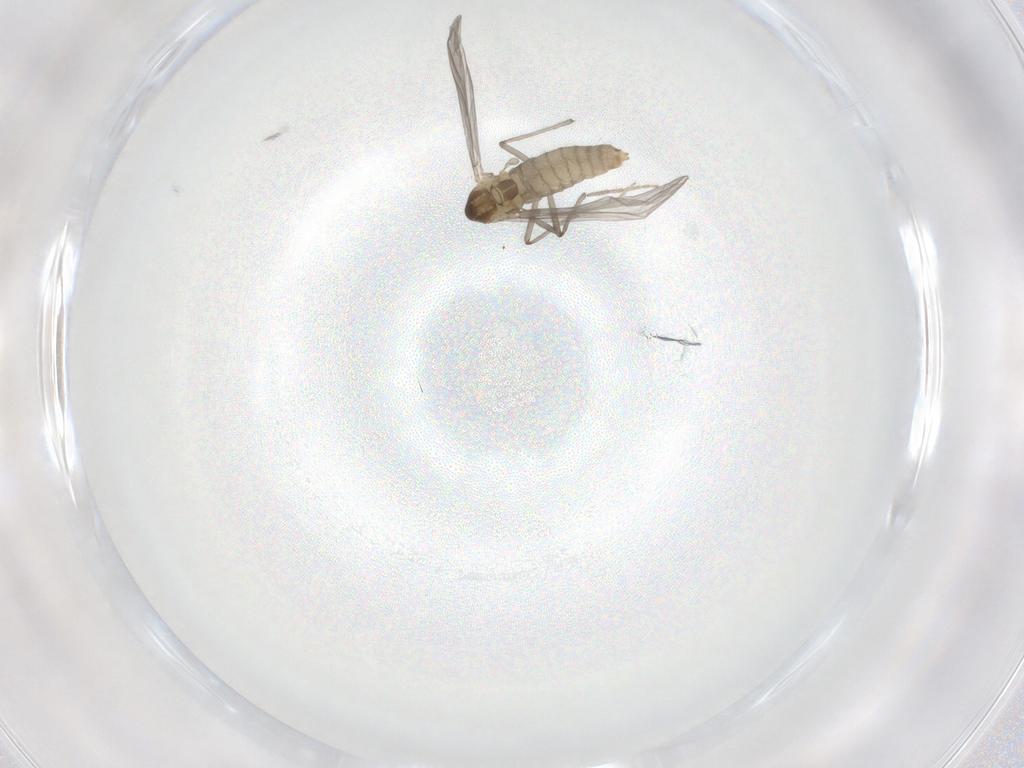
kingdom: Animalia
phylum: Arthropoda
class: Insecta
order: Diptera
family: Chironomidae
